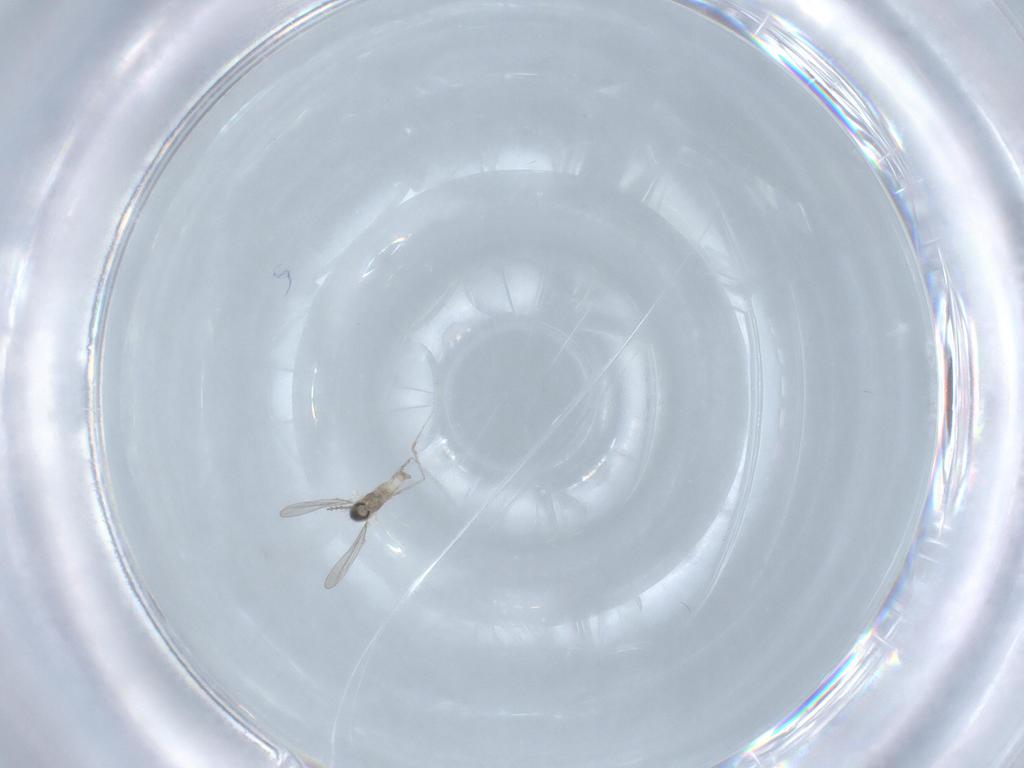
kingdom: Animalia
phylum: Arthropoda
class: Insecta
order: Diptera
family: Cecidomyiidae
